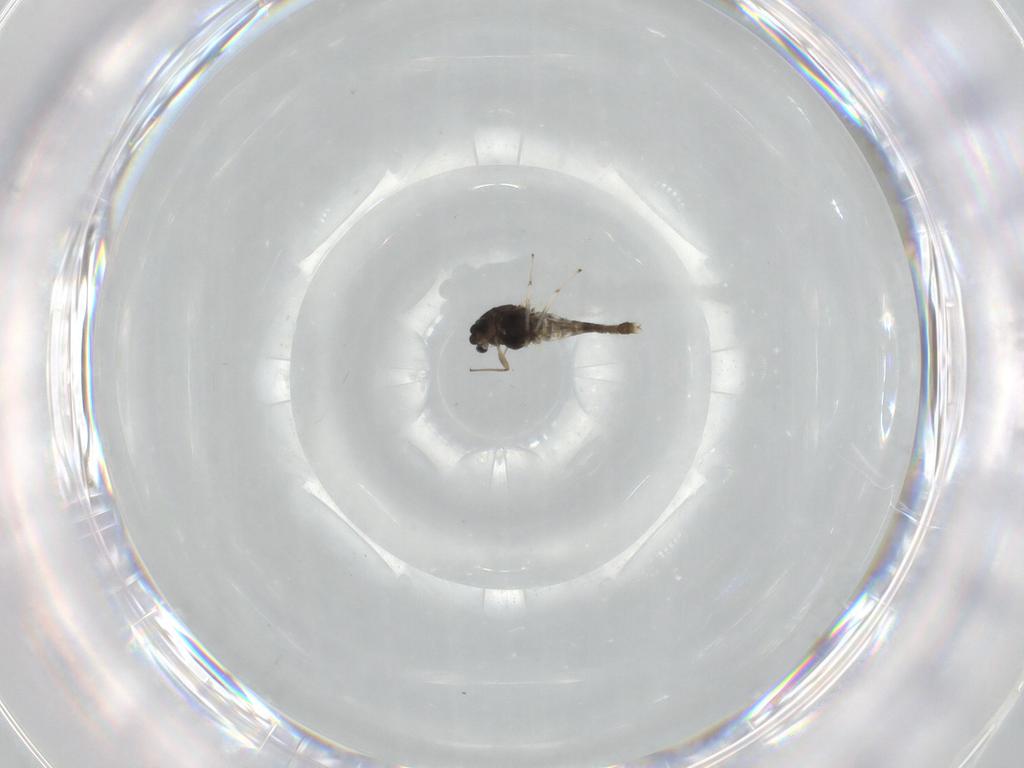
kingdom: Animalia
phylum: Arthropoda
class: Insecta
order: Diptera
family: Chironomidae
